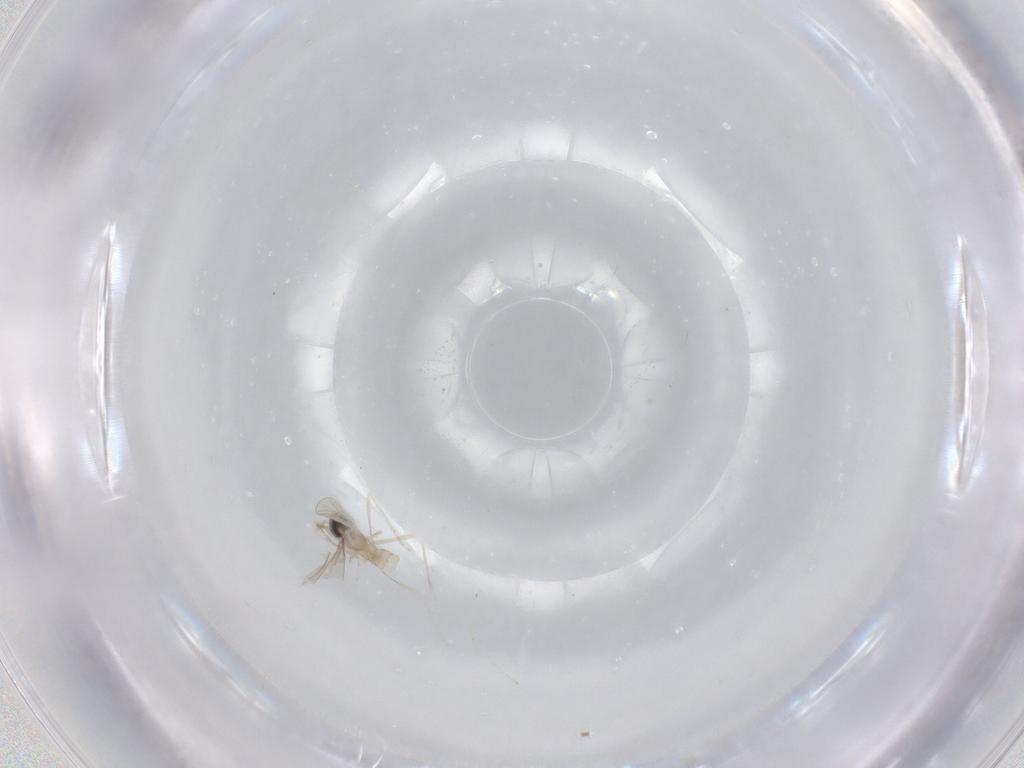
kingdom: Animalia
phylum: Arthropoda
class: Insecta
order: Diptera
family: Cecidomyiidae
